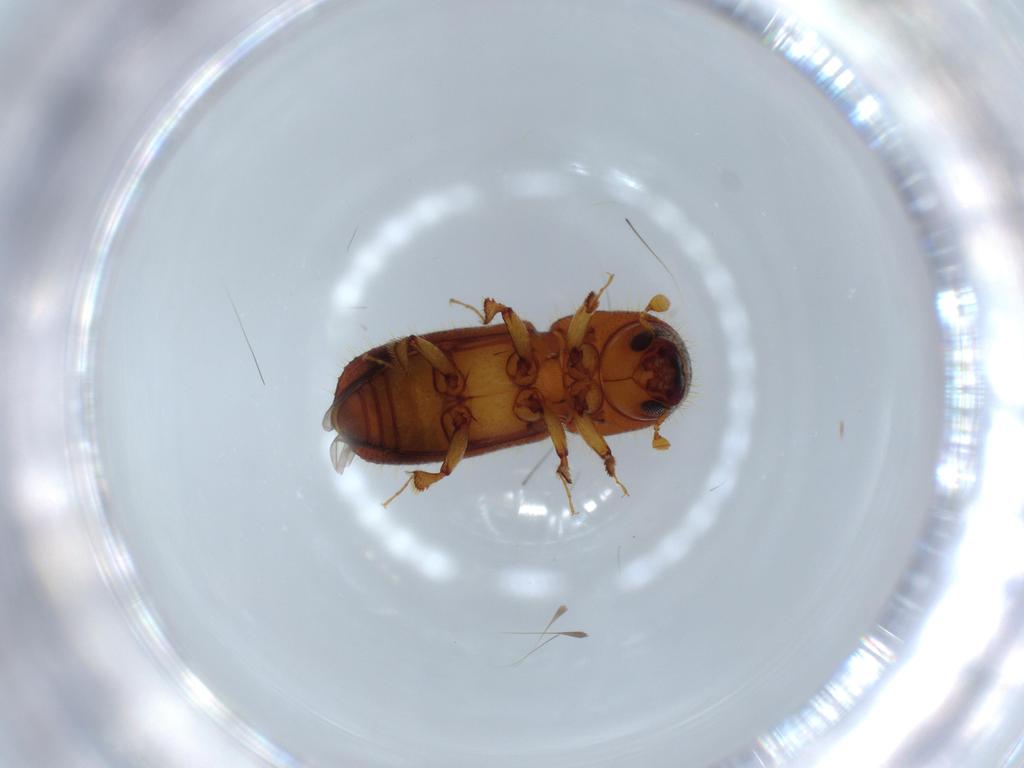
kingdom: Animalia
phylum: Arthropoda
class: Insecta
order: Coleoptera
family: Curculionidae
